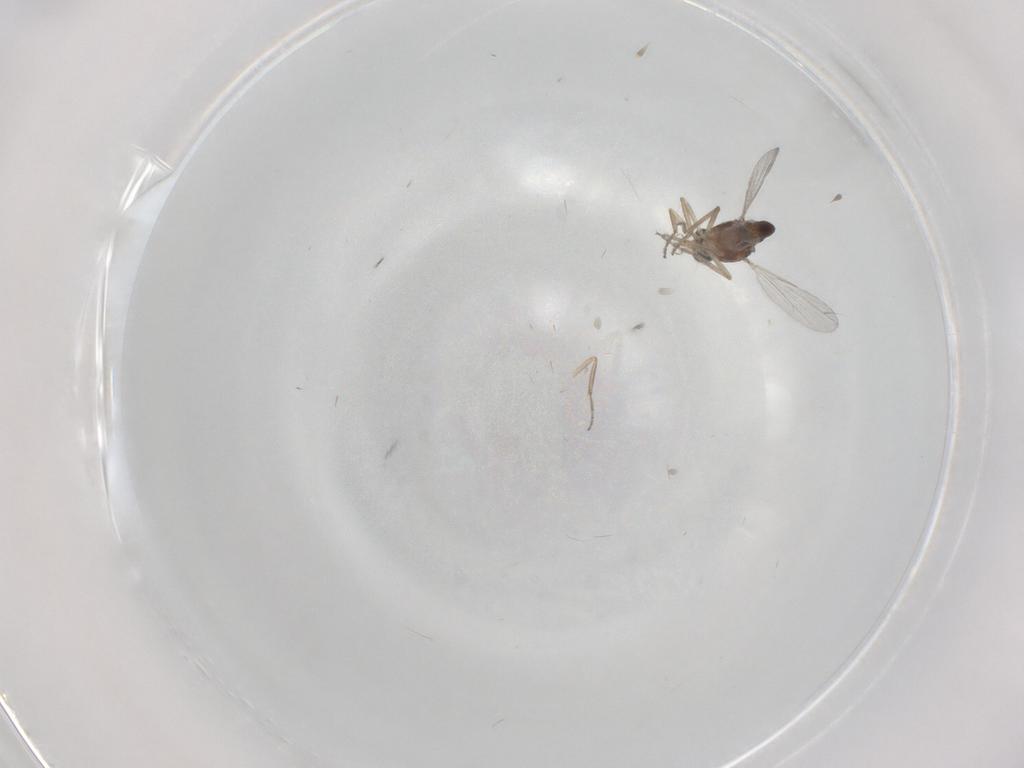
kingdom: Animalia
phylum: Arthropoda
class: Insecta
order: Diptera
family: Ceratopogonidae
